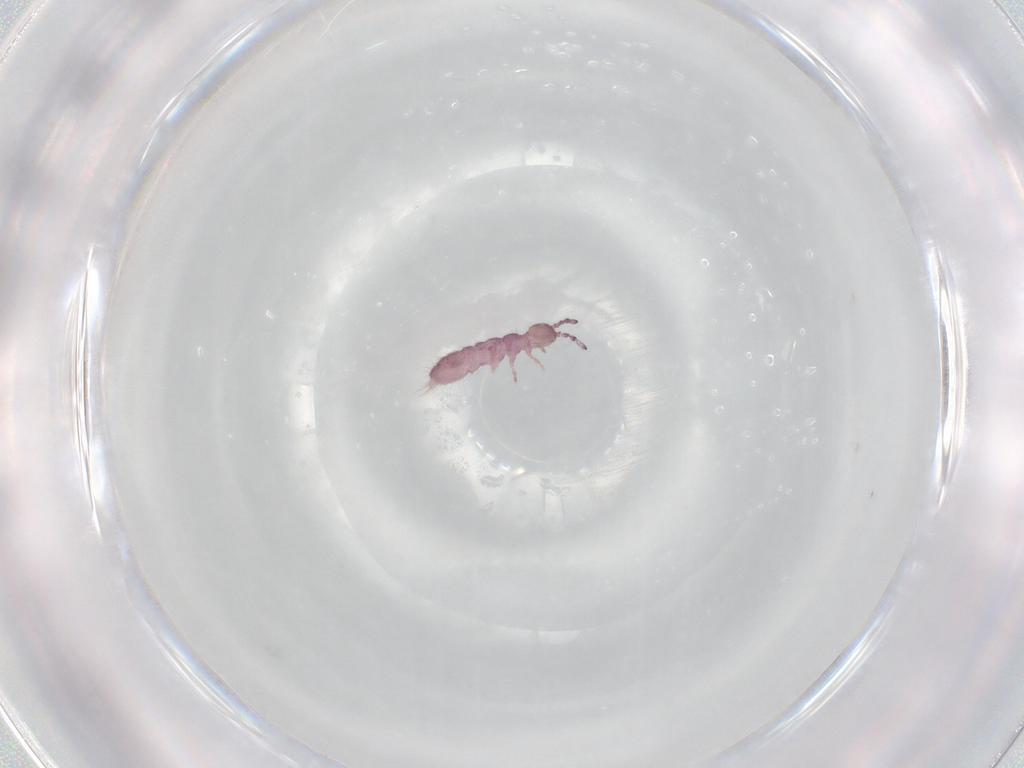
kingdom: Animalia
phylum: Arthropoda
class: Collembola
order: Entomobryomorpha
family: Isotomidae
